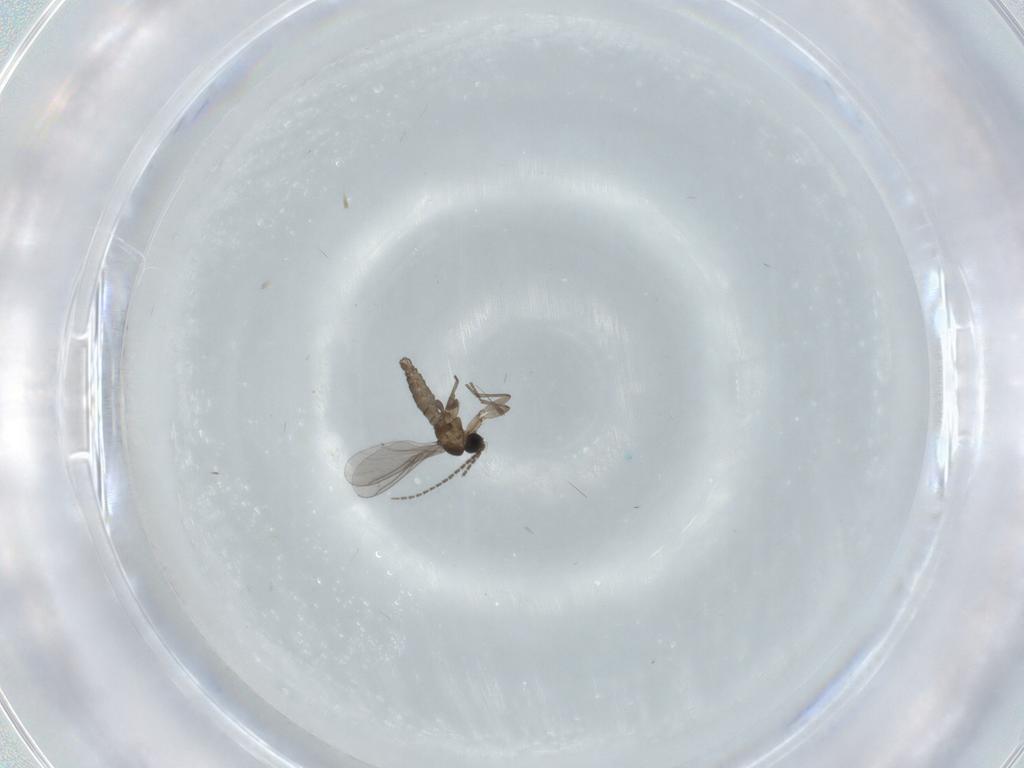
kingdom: Animalia
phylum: Arthropoda
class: Insecta
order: Diptera
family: Sciaridae
